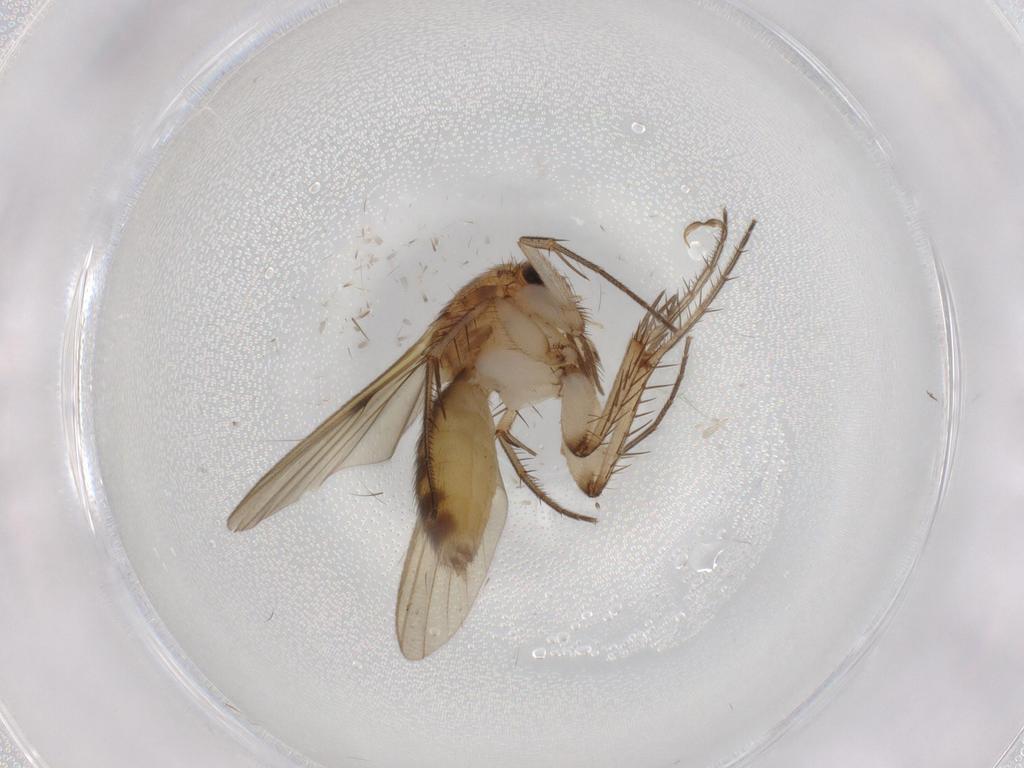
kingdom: Animalia
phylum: Arthropoda
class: Insecta
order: Diptera
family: Mycetophilidae
